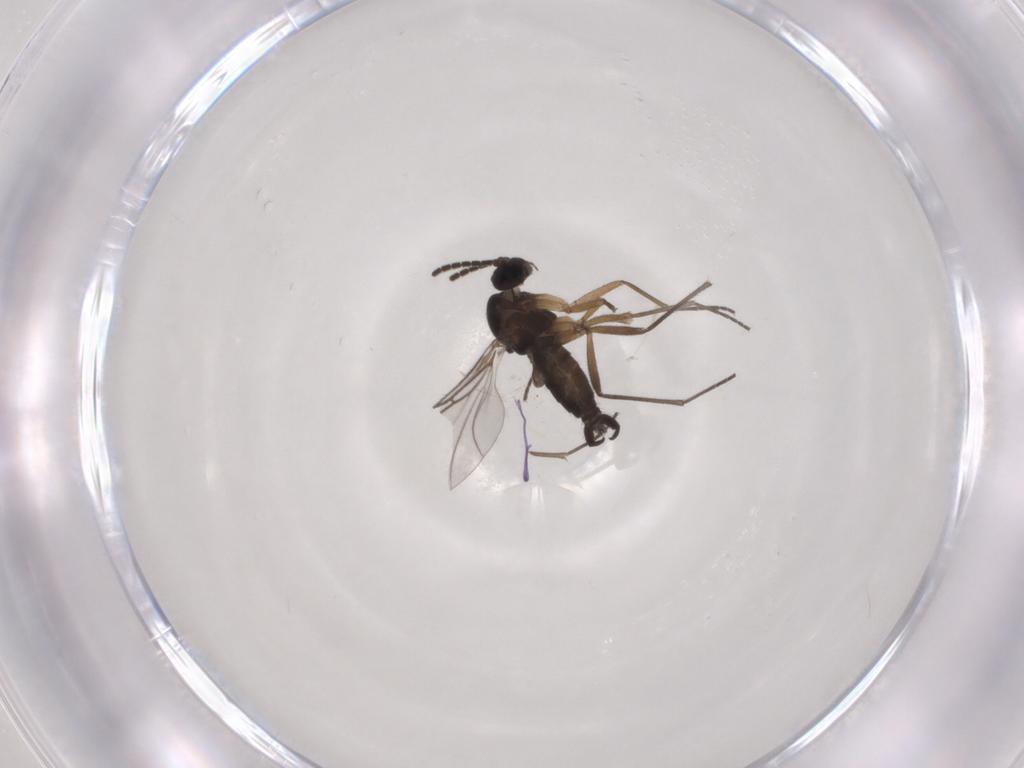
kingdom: Animalia
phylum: Arthropoda
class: Insecta
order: Diptera
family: Sciaridae
